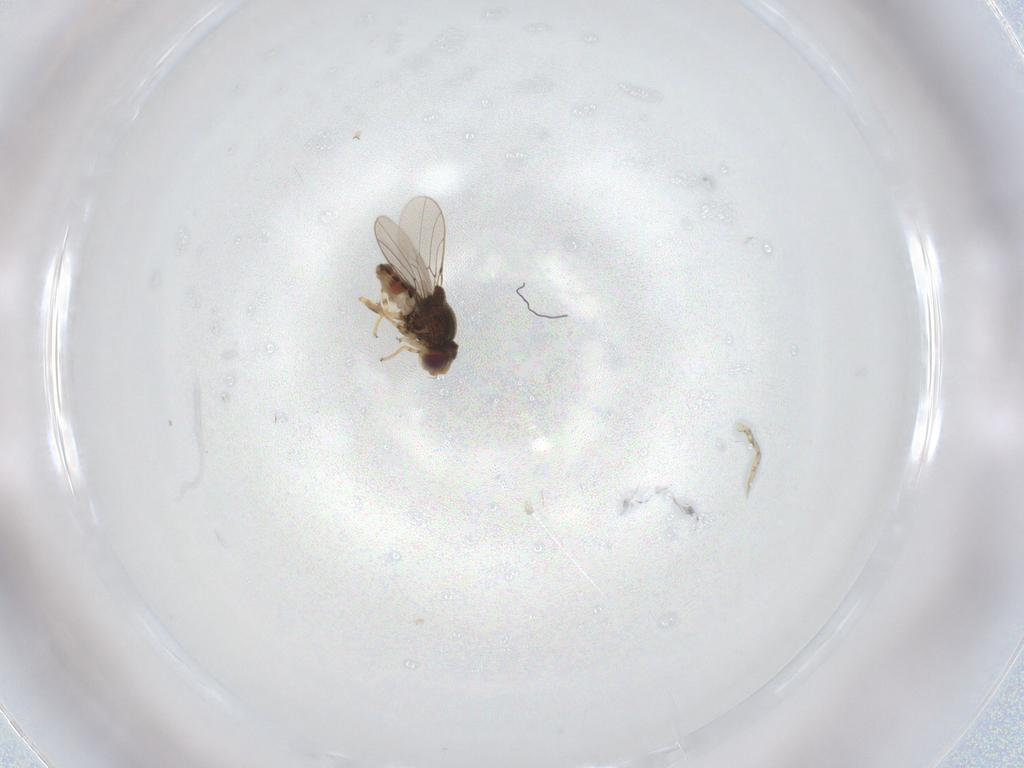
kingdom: Animalia
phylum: Arthropoda
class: Insecta
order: Diptera
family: Chloropidae
